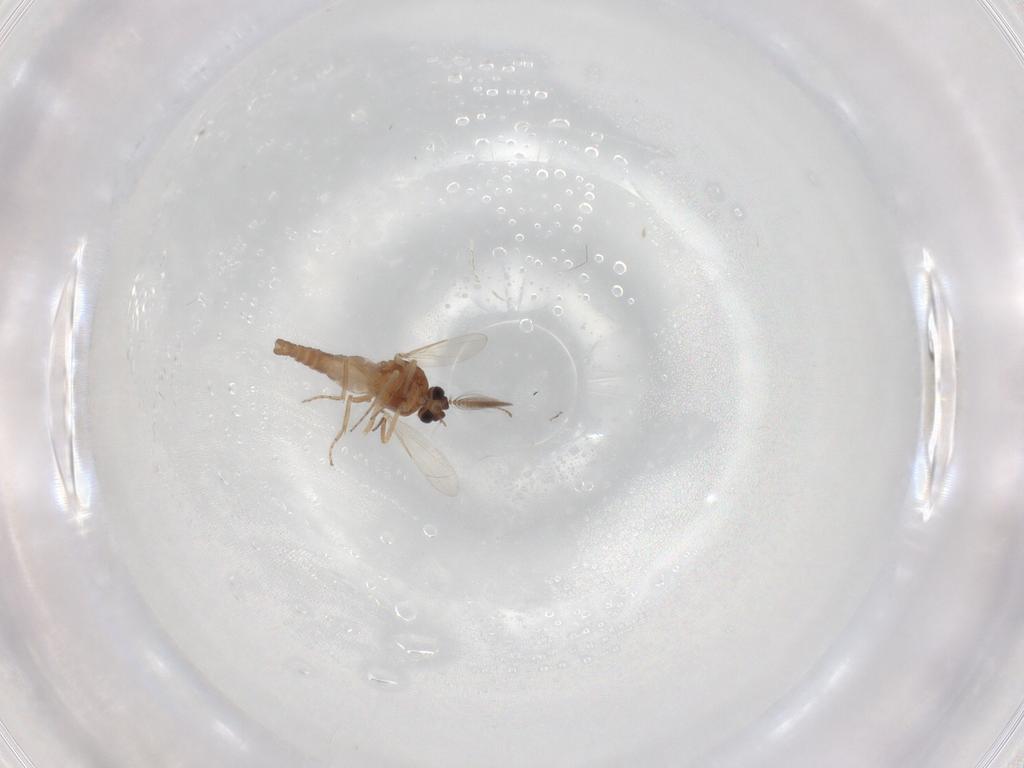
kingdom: Animalia
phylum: Arthropoda
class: Insecta
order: Diptera
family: Ceratopogonidae
